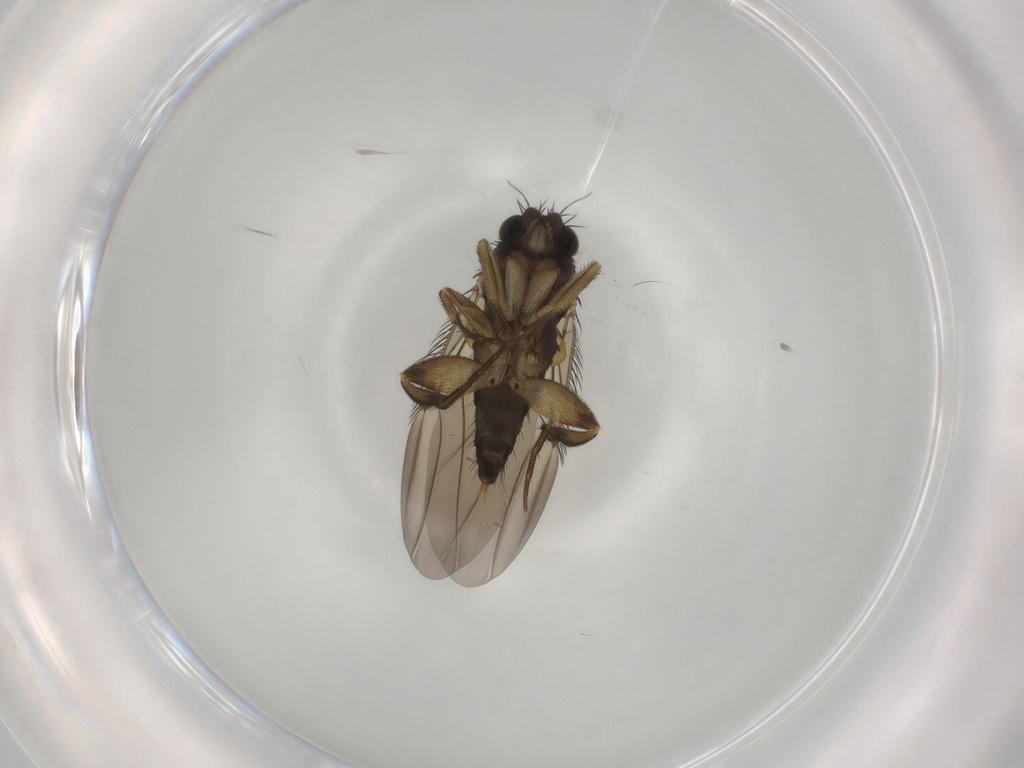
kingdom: Animalia
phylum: Arthropoda
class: Insecta
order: Diptera
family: Phoridae
